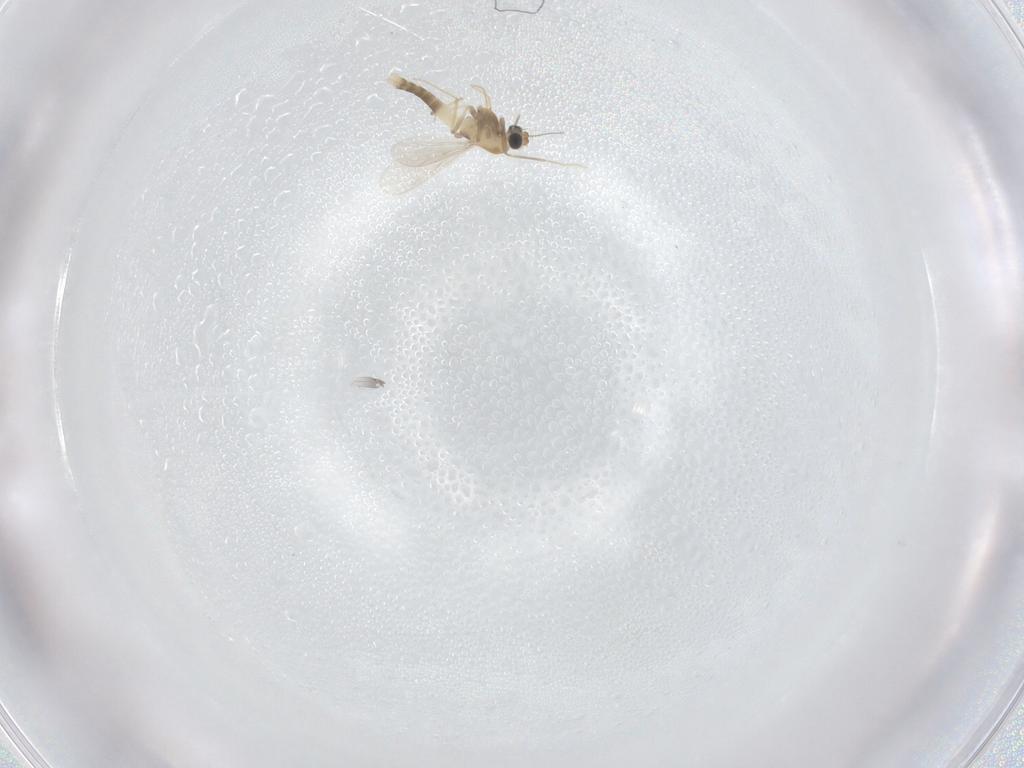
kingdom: Animalia
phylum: Arthropoda
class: Insecta
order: Diptera
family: Chironomidae
